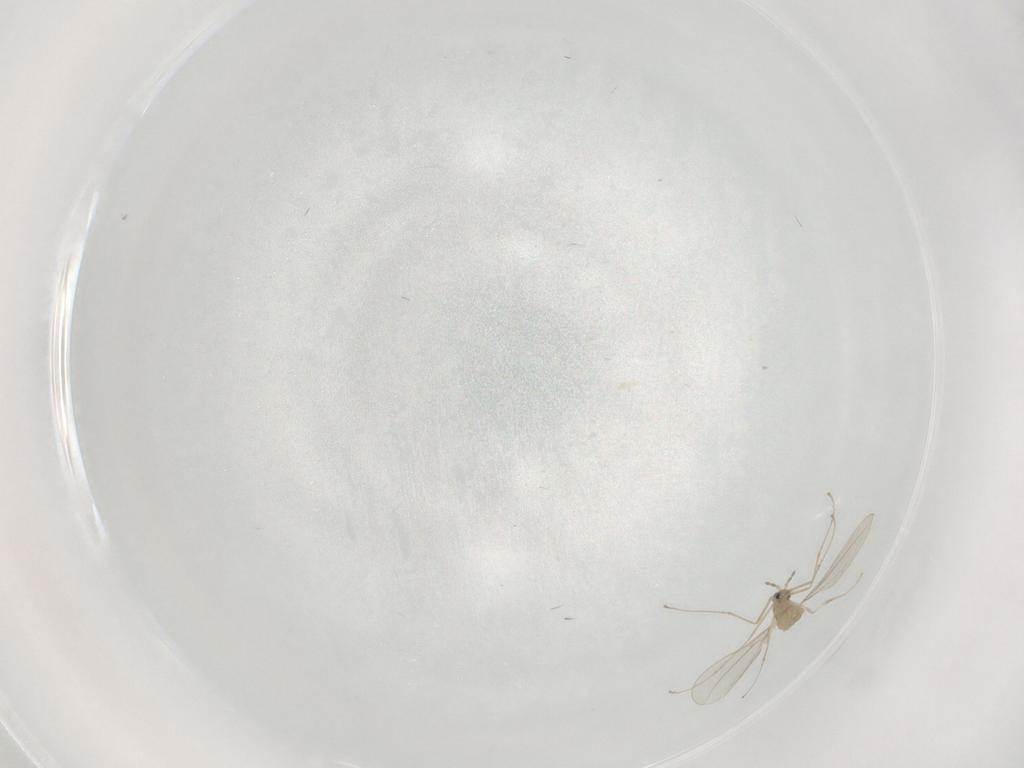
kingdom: Animalia
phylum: Arthropoda
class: Insecta
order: Diptera
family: Cecidomyiidae
